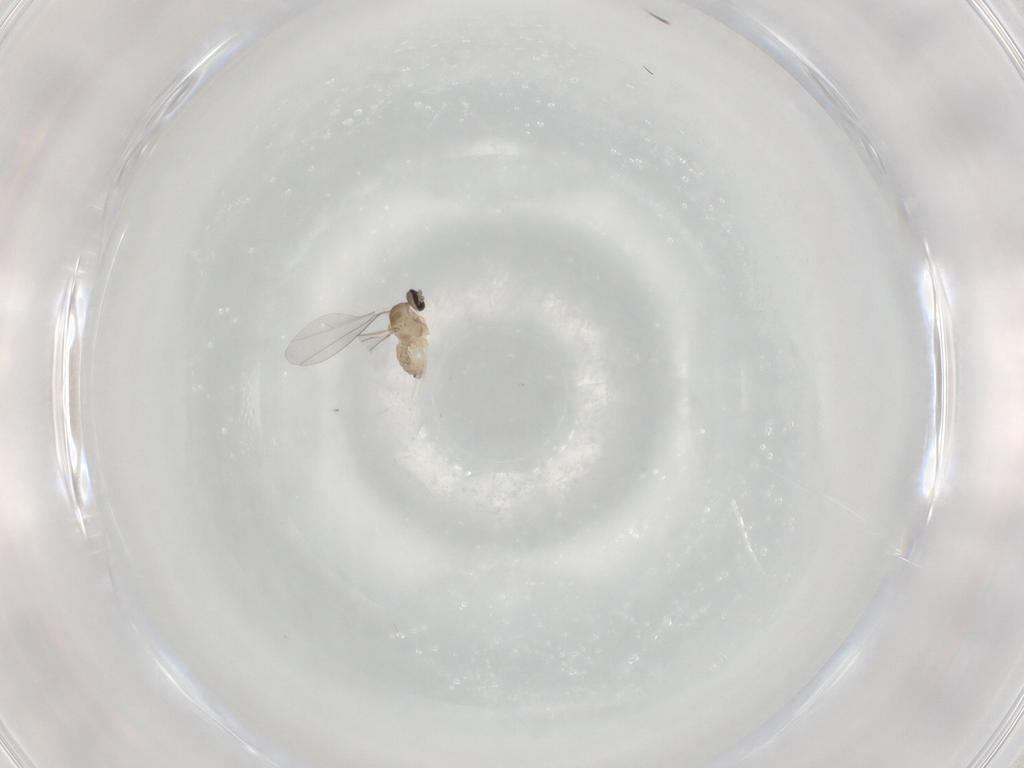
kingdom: Animalia
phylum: Arthropoda
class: Insecta
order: Diptera
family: Cecidomyiidae
